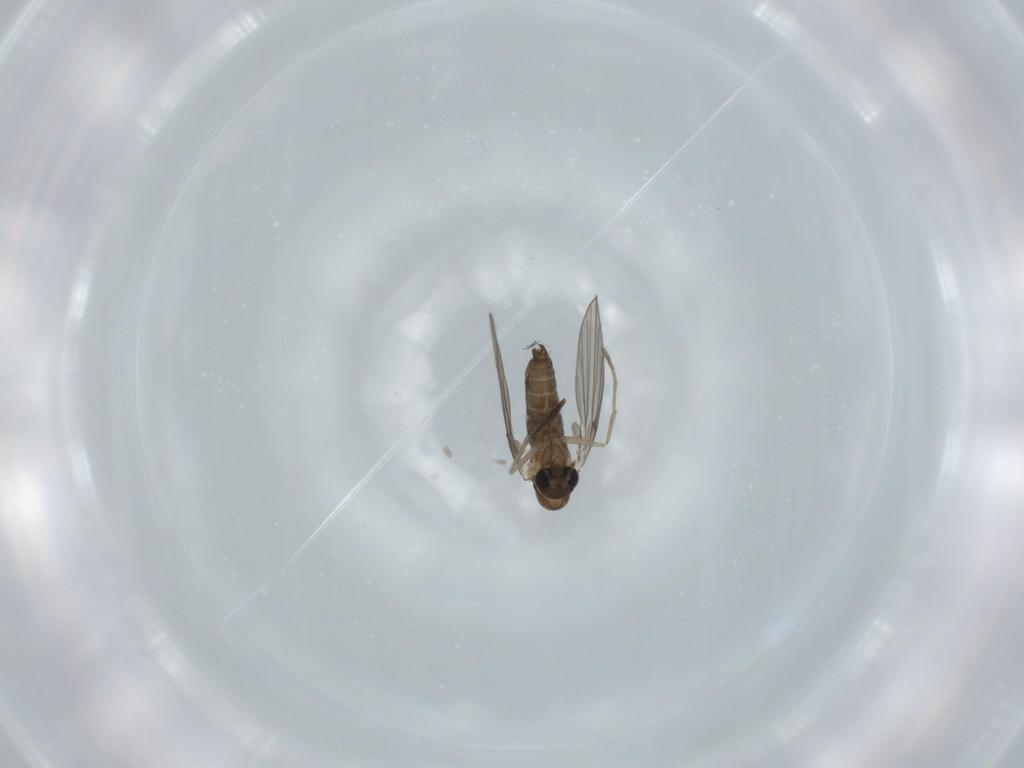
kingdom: Animalia
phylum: Arthropoda
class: Insecta
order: Diptera
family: Psychodidae
